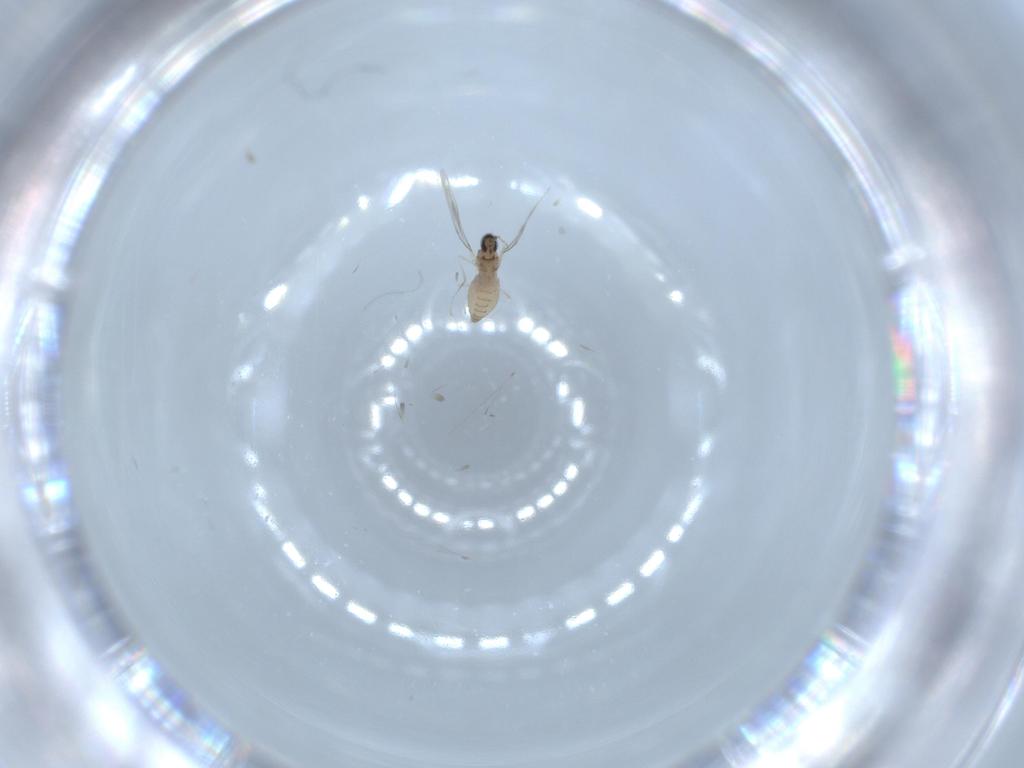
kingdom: Animalia
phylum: Arthropoda
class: Insecta
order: Diptera
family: Cecidomyiidae
